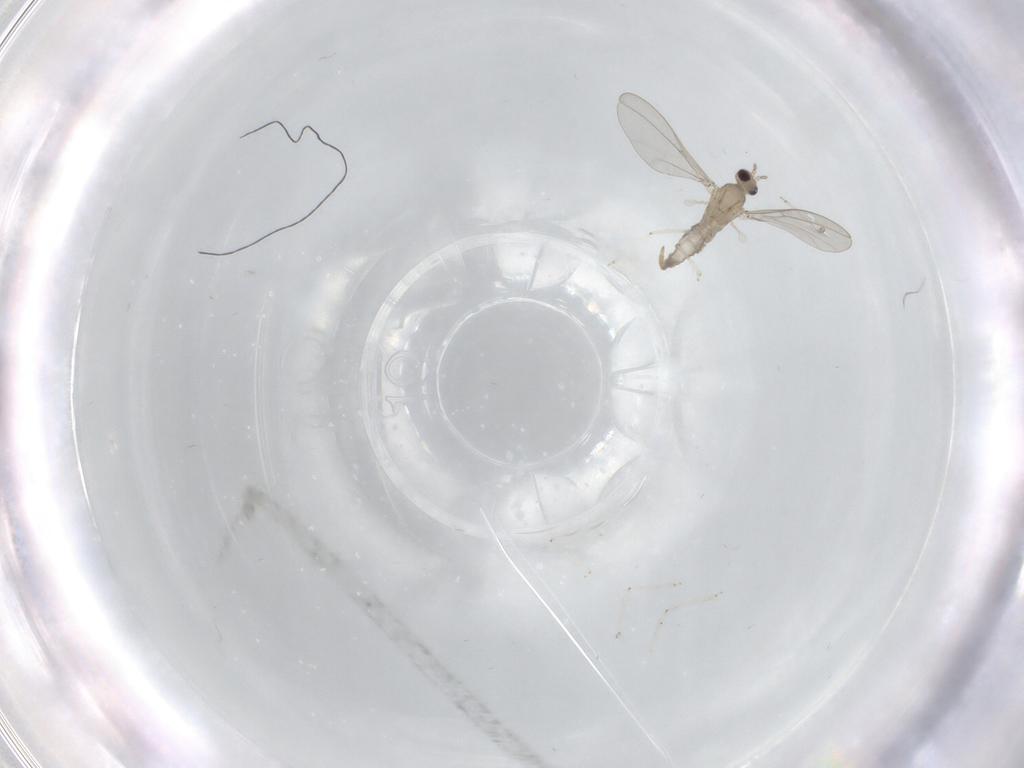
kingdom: Animalia
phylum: Arthropoda
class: Insecta
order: Diptera
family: Cecidomyiidae
